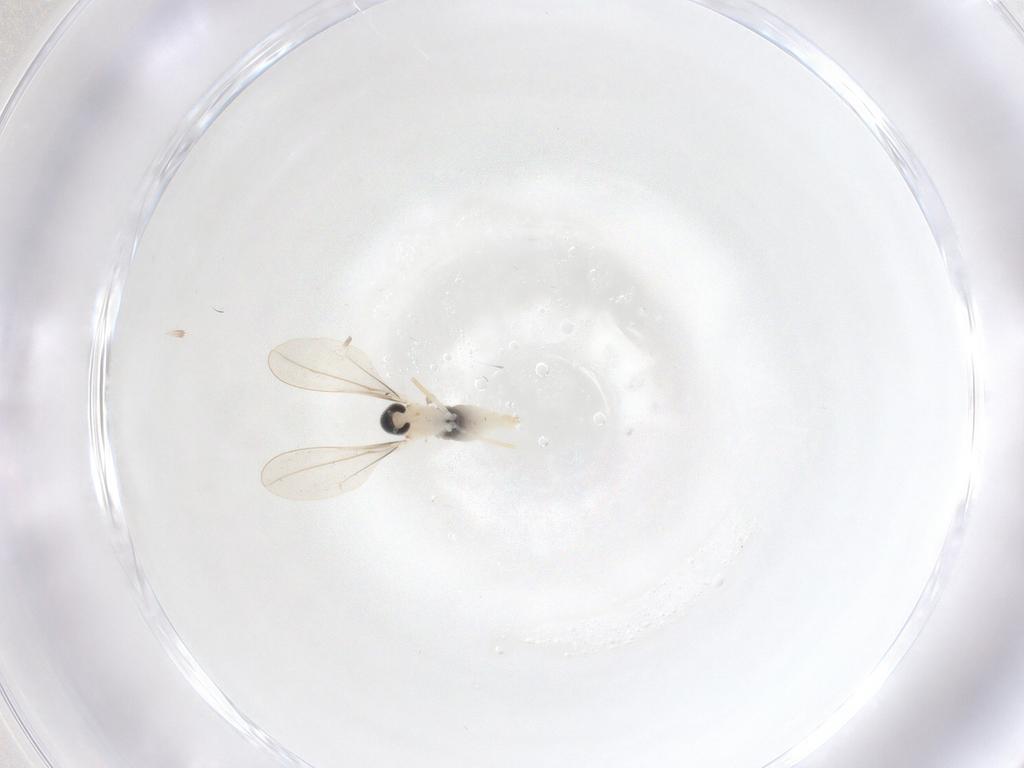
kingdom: Animalia
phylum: Arthropoda
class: Insecta
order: Diptera
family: Cecidomyiidae
